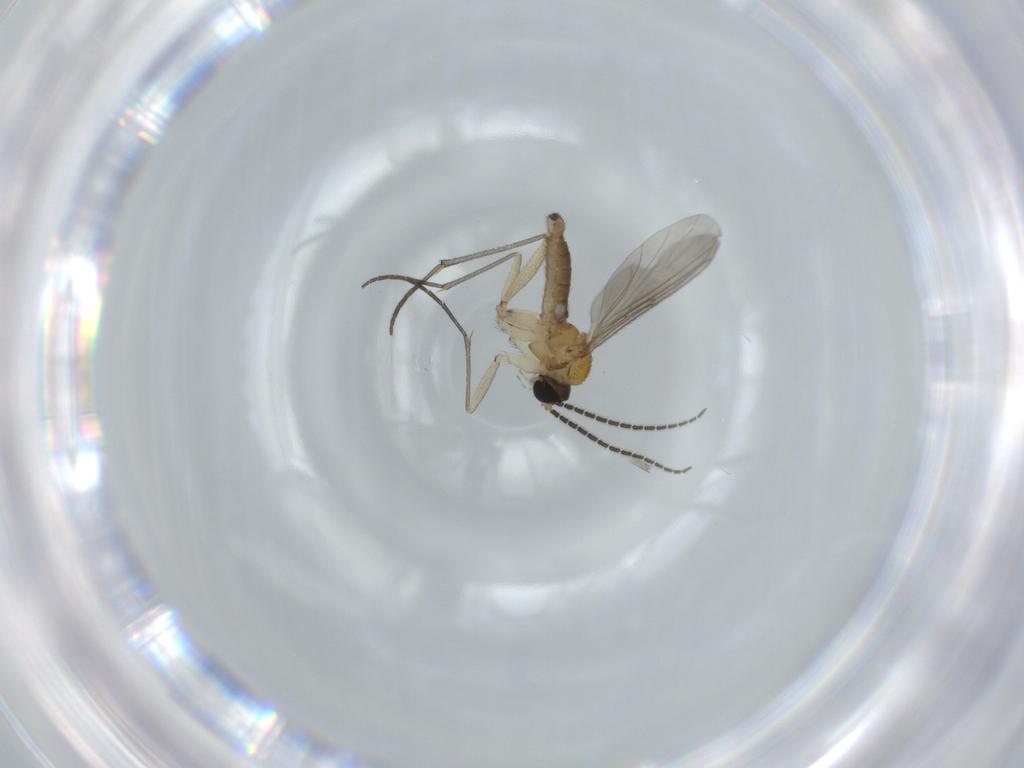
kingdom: Animalia
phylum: Arthropoda
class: Insecta
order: Diptera
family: Sciaridae
